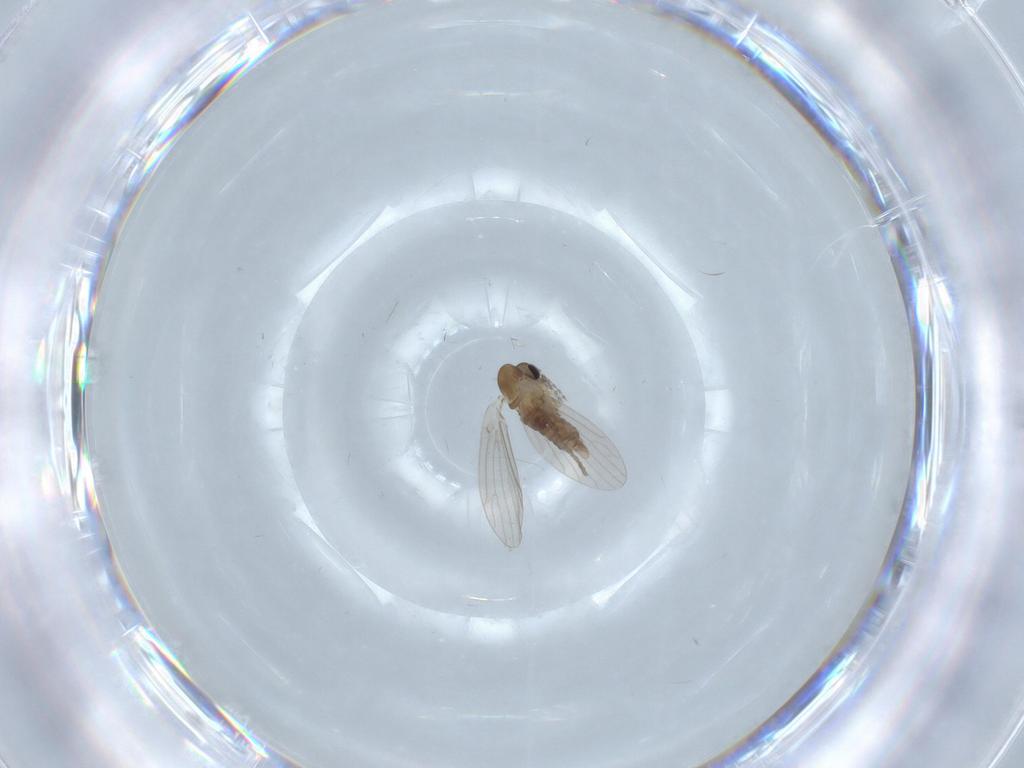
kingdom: Animalia
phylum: Arthropoda
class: Insecta
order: Diptera
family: Psychodidae
